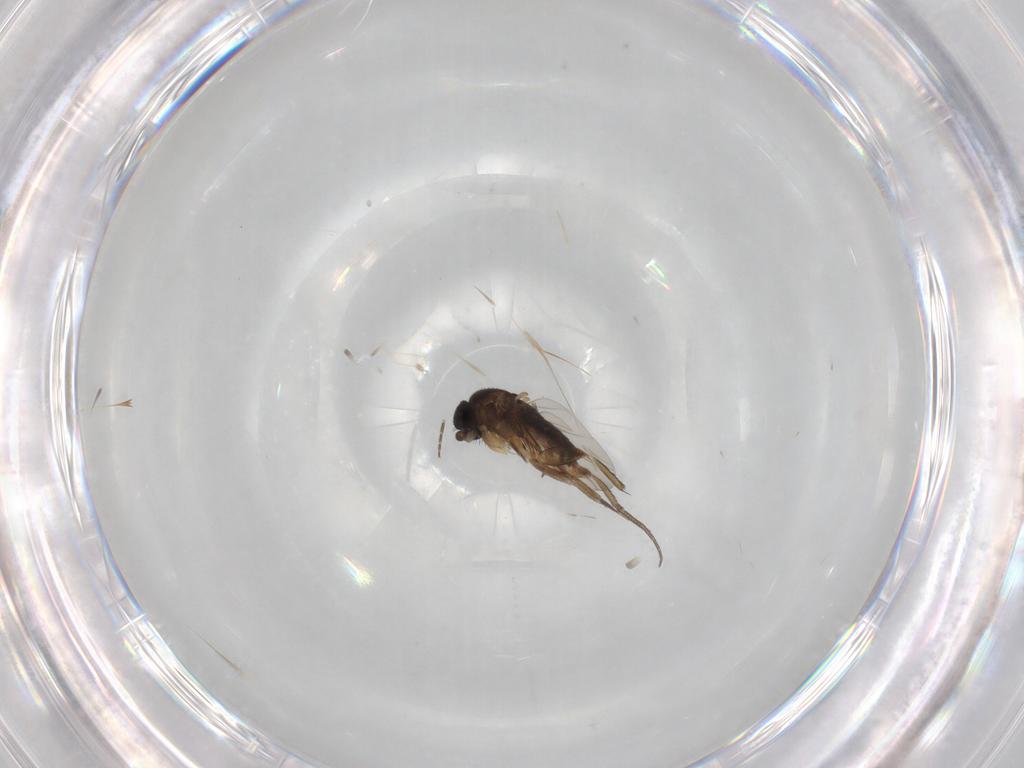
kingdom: Animalia
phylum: Arthropoda
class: Insecta
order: Diptera
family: Phoridae
